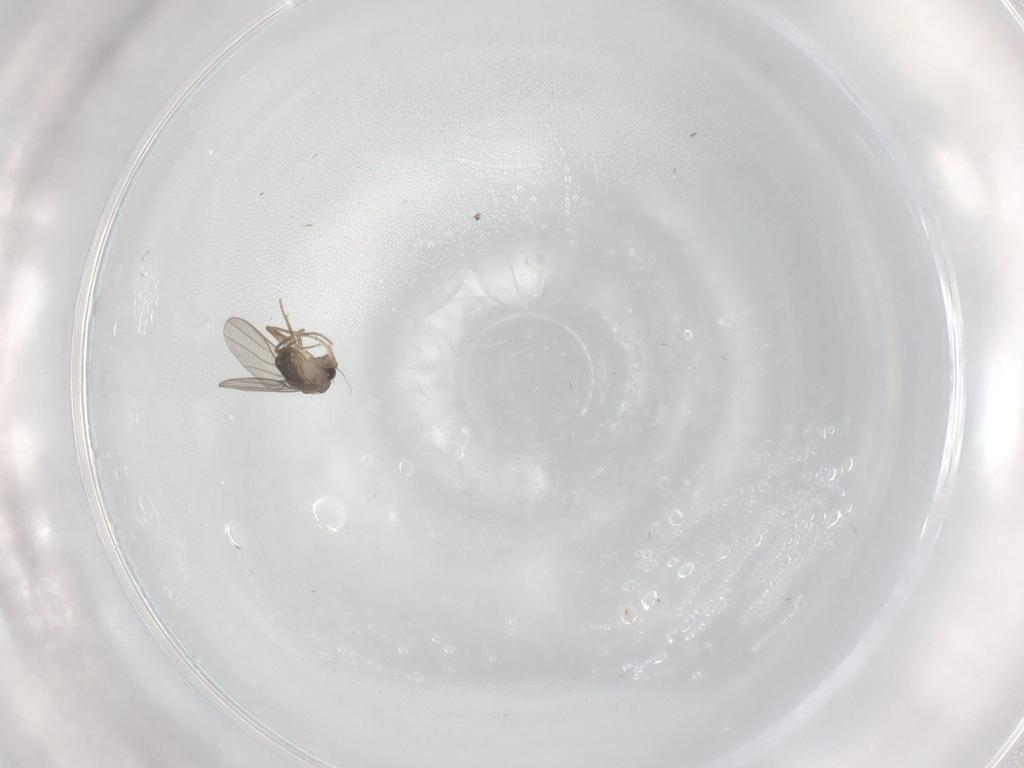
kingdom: Animalia
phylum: Arthropoda
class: Insecta
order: Diptera
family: Phoridae
